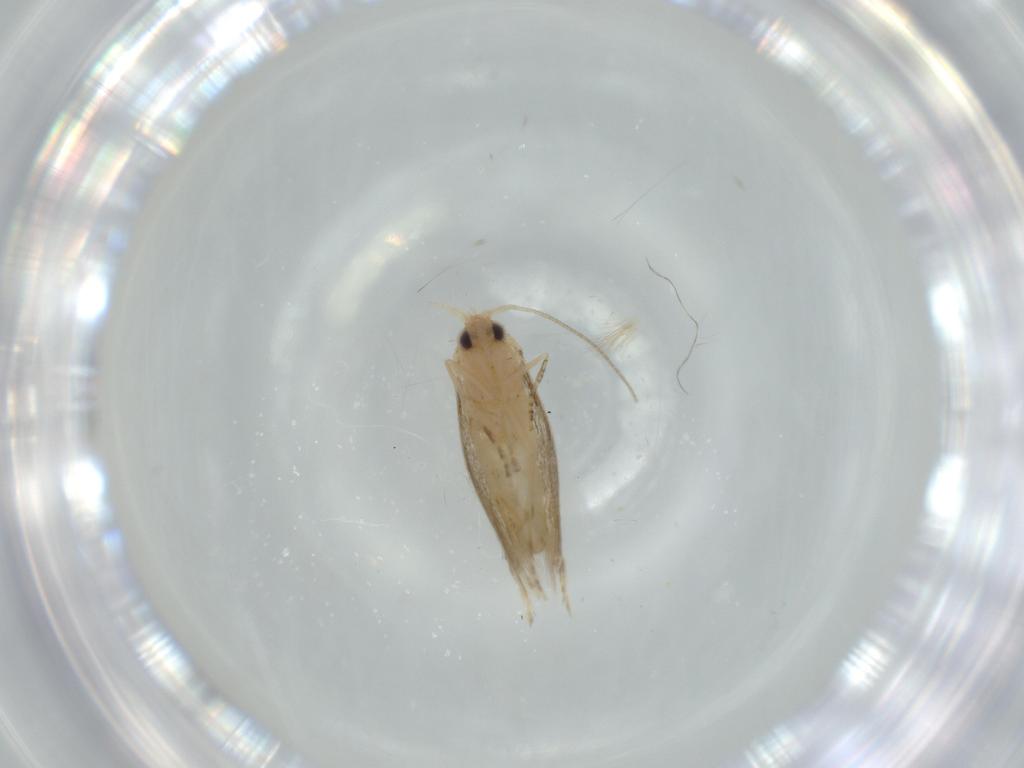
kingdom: Animalia
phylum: Arthropoda
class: Insecta
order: Lepidoptera
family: Bucculatricidae
